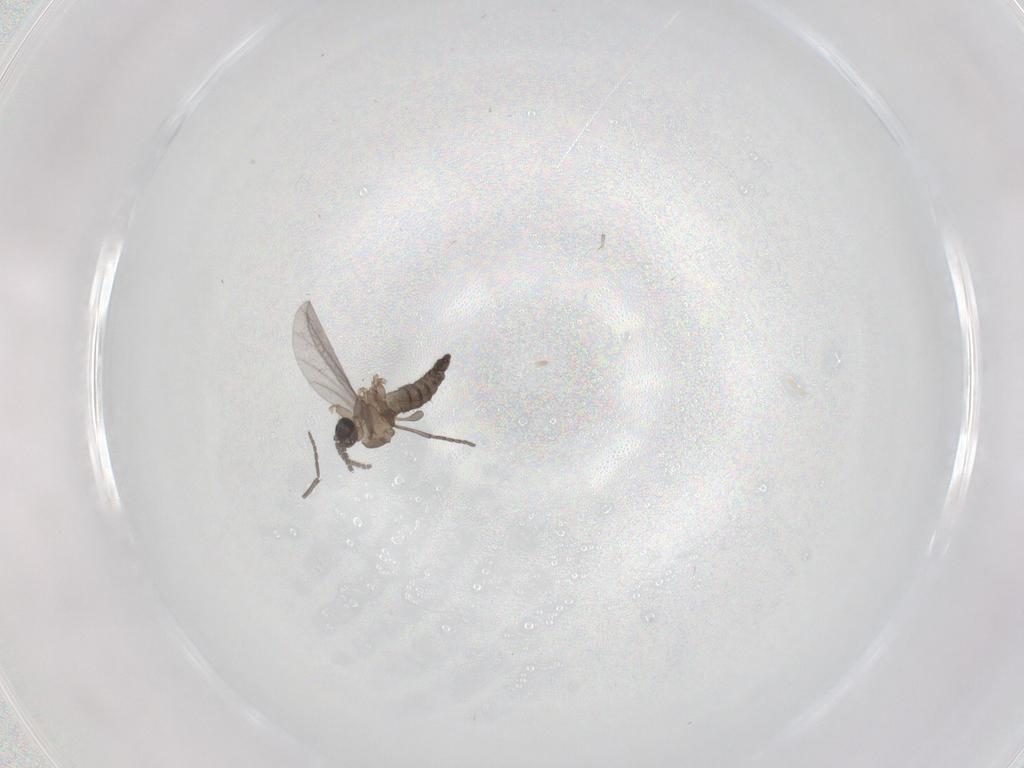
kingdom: Animalia
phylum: Arthropoda
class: Insecta
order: Diptera
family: Sciaridae
